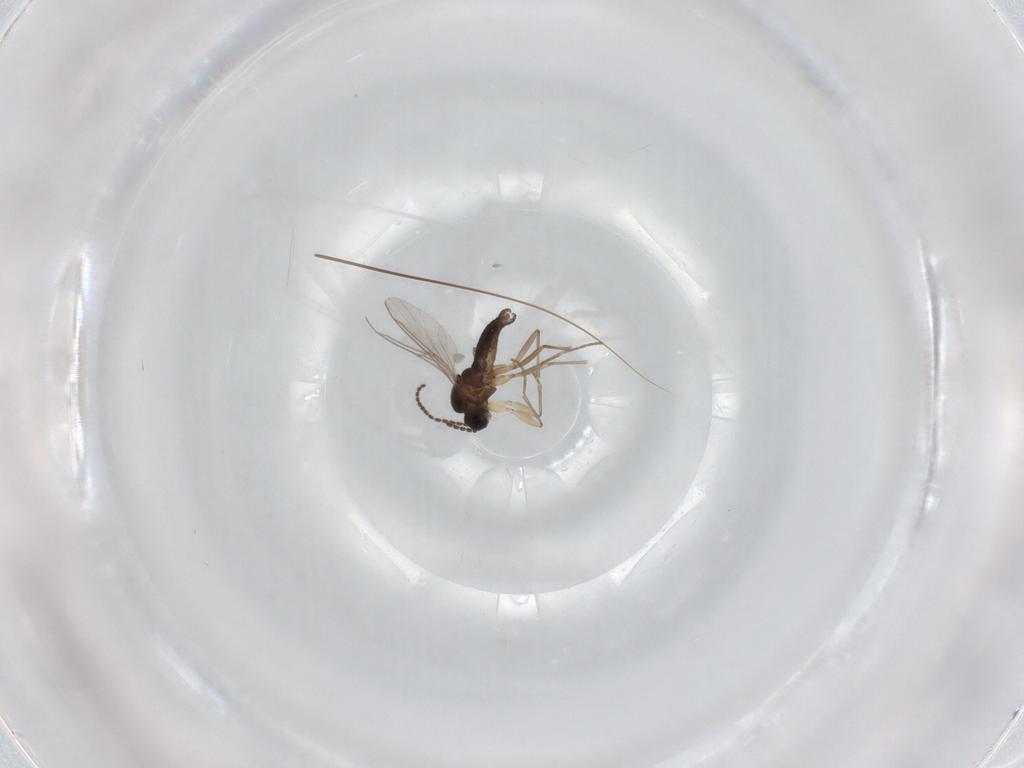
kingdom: Animalia
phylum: Arthropoda
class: Insecta
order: Diptera
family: Sciaridae
